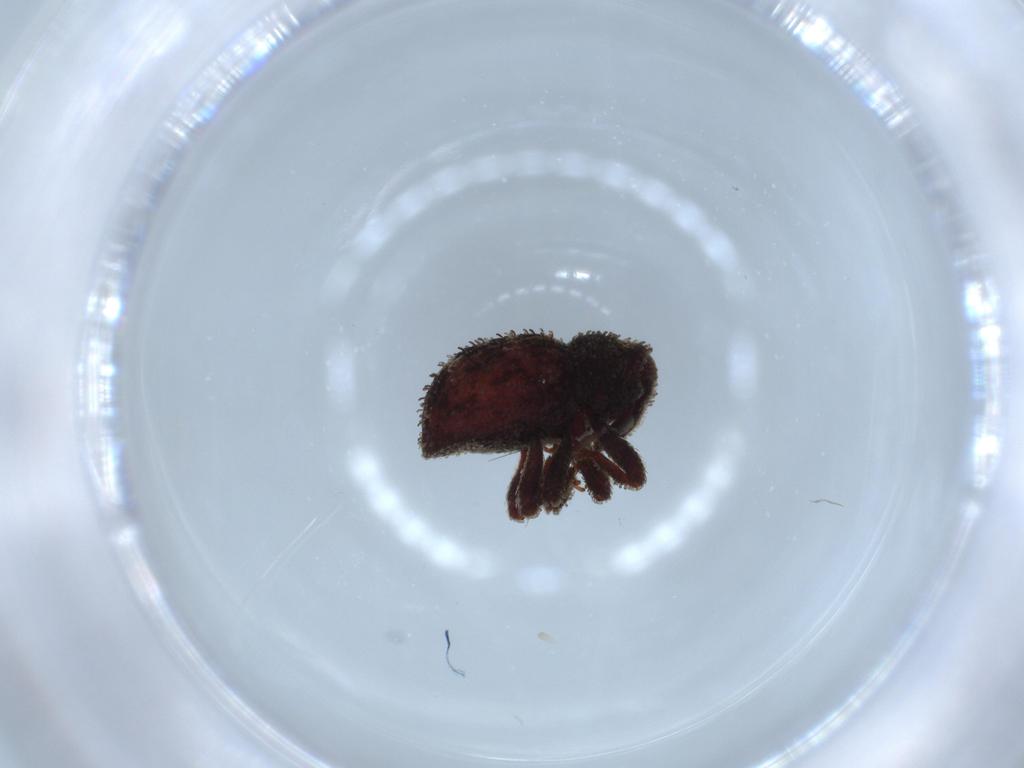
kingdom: Animalia
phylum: Arthropoda
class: Insecta
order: Coleoptera
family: Curculionidae
